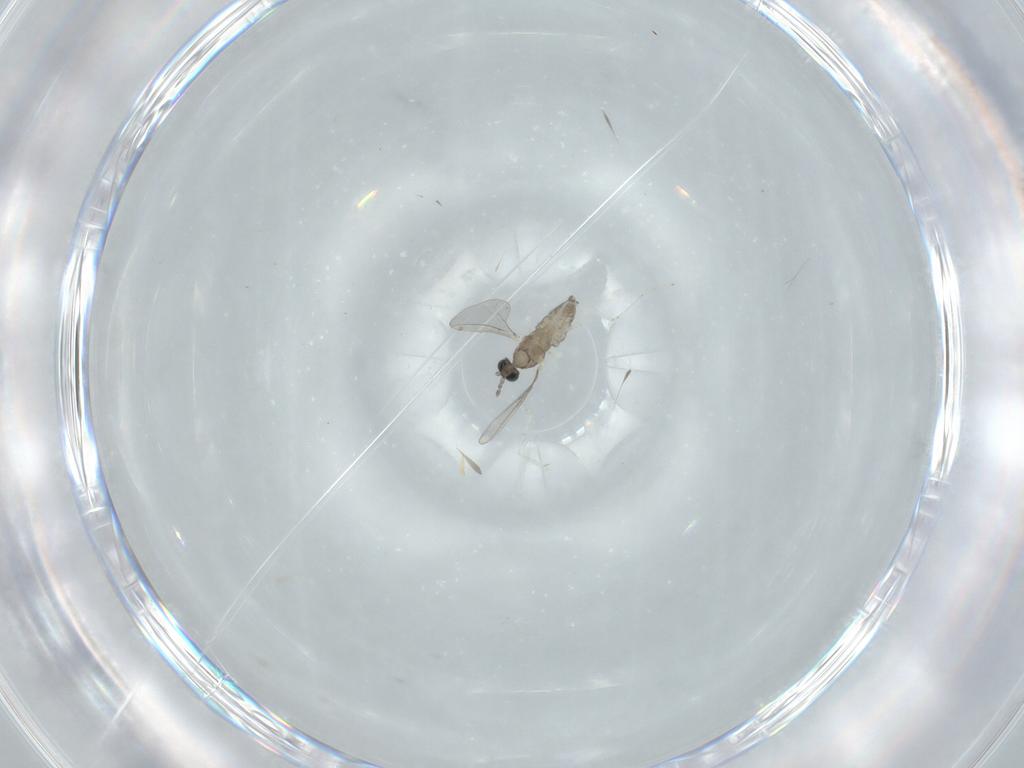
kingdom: Animalia
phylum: Arthropoda
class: Insecta
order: Diptera
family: Cecidomyiidae
